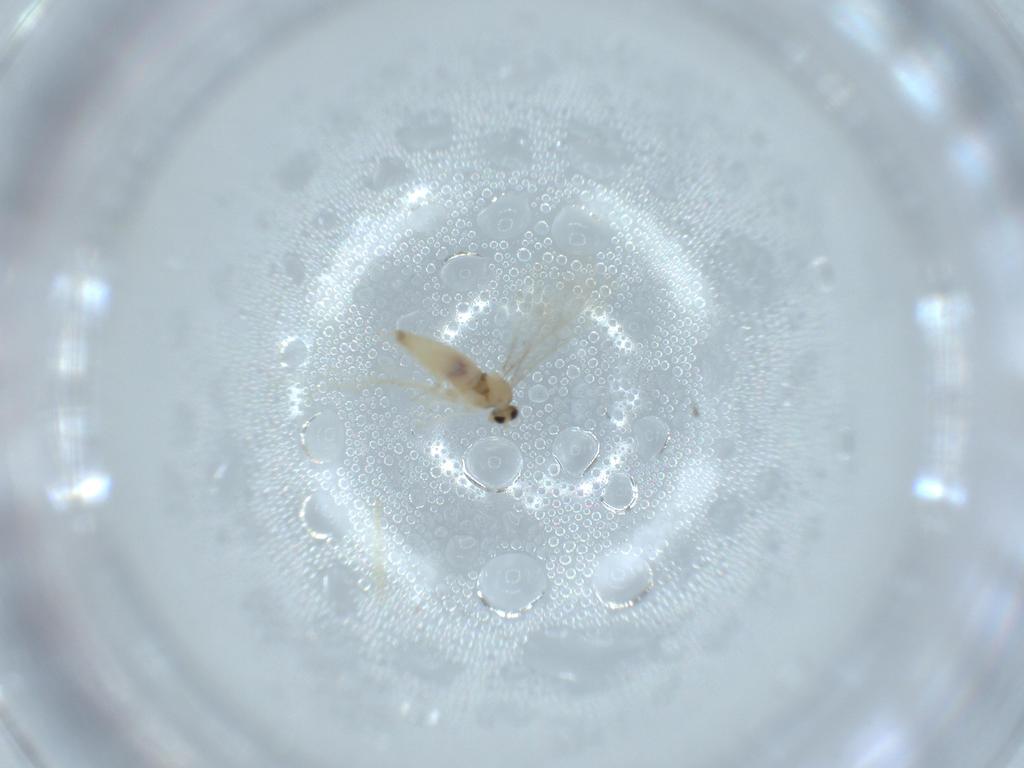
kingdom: Animalia
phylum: Arthropoda
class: Insecta
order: Diptera
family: Cecidomyiidae
